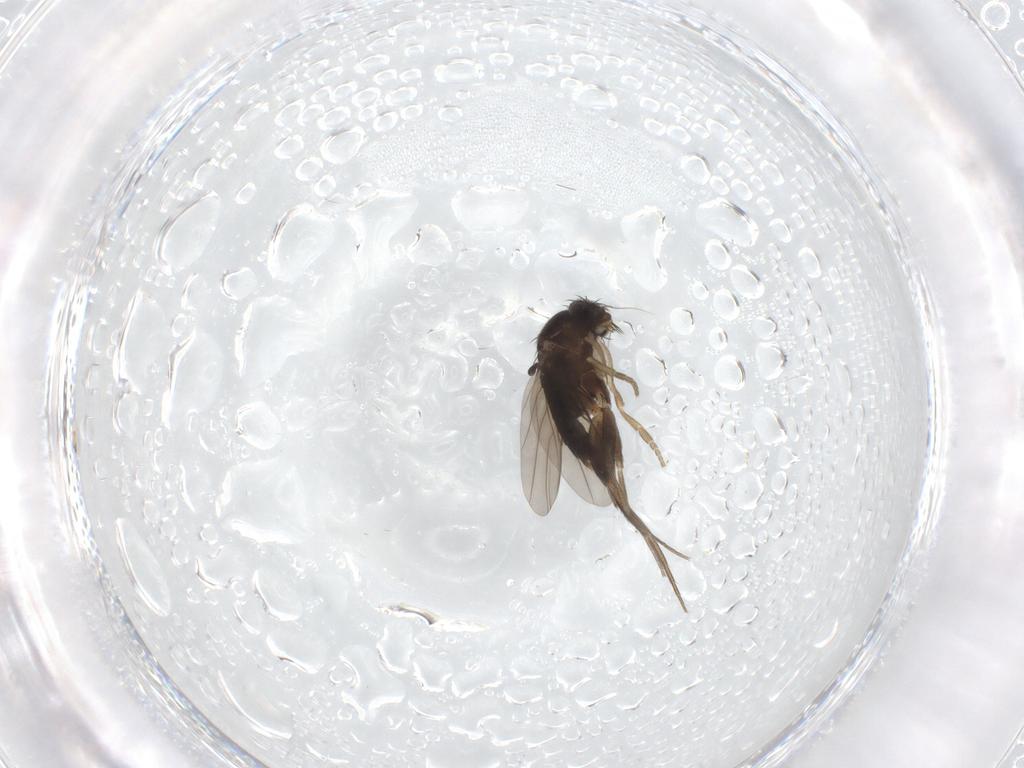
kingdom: Animalia
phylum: Arthropoda
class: Insecta
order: Diptera
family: Phoridae
